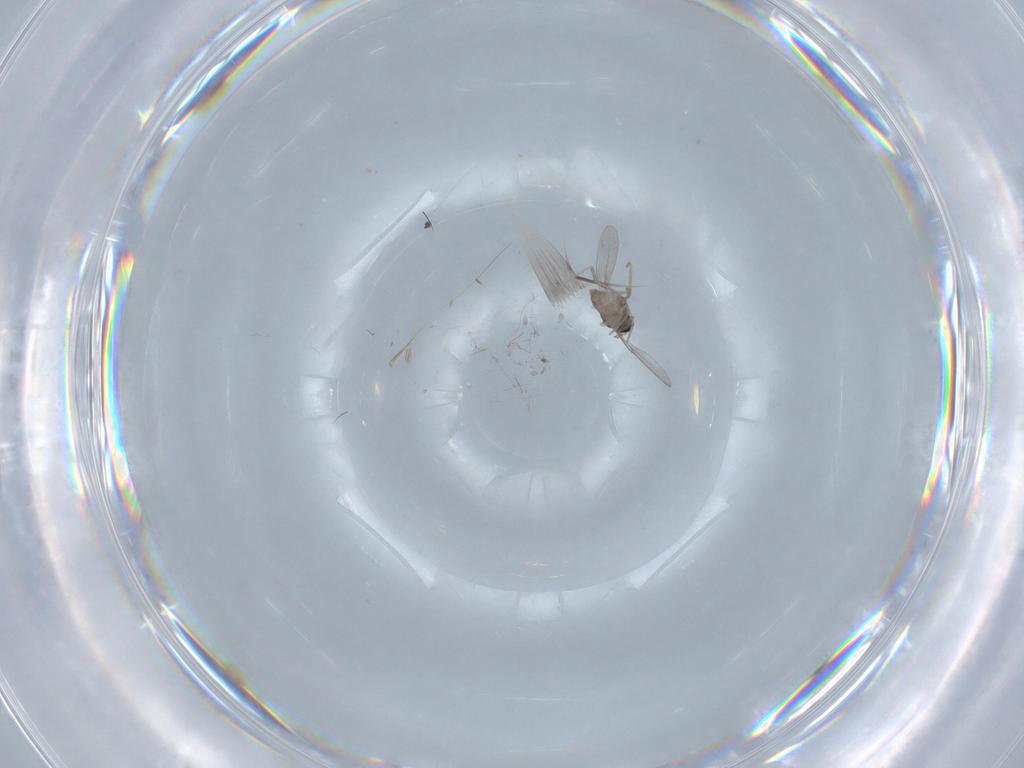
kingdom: Animalia
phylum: Arthropoda
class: Insecta
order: Diptera
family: Cecidomyiidae
